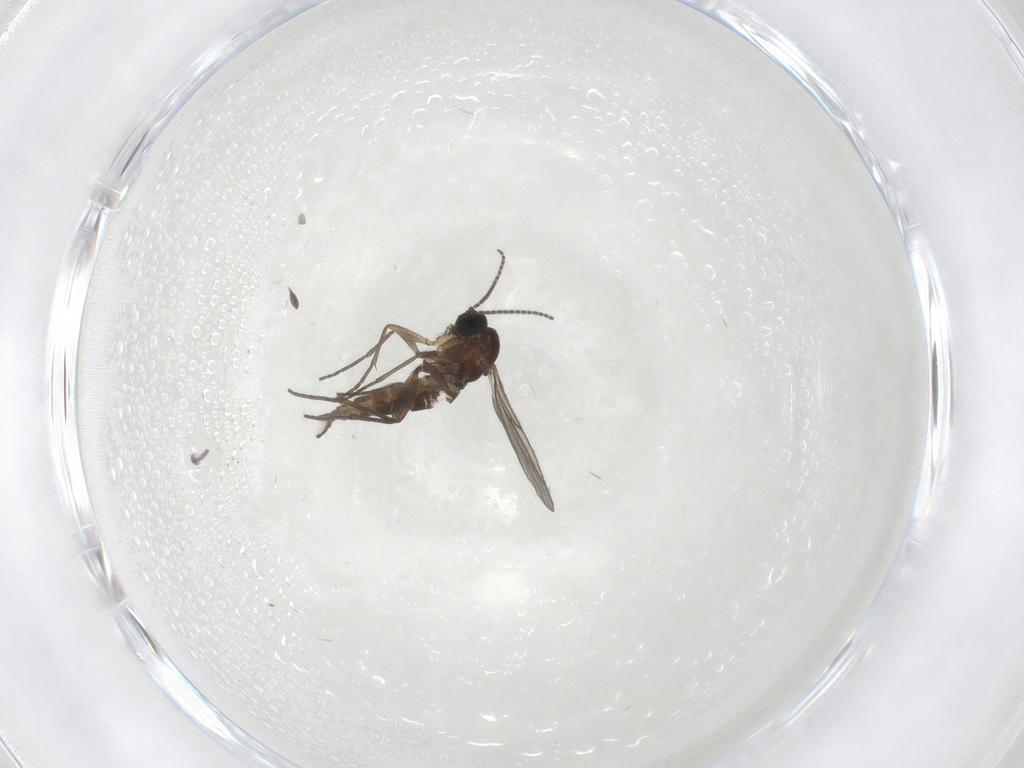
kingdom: Animalia
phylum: Arthropoda
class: Insecta
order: Diptera
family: Sciaridae
